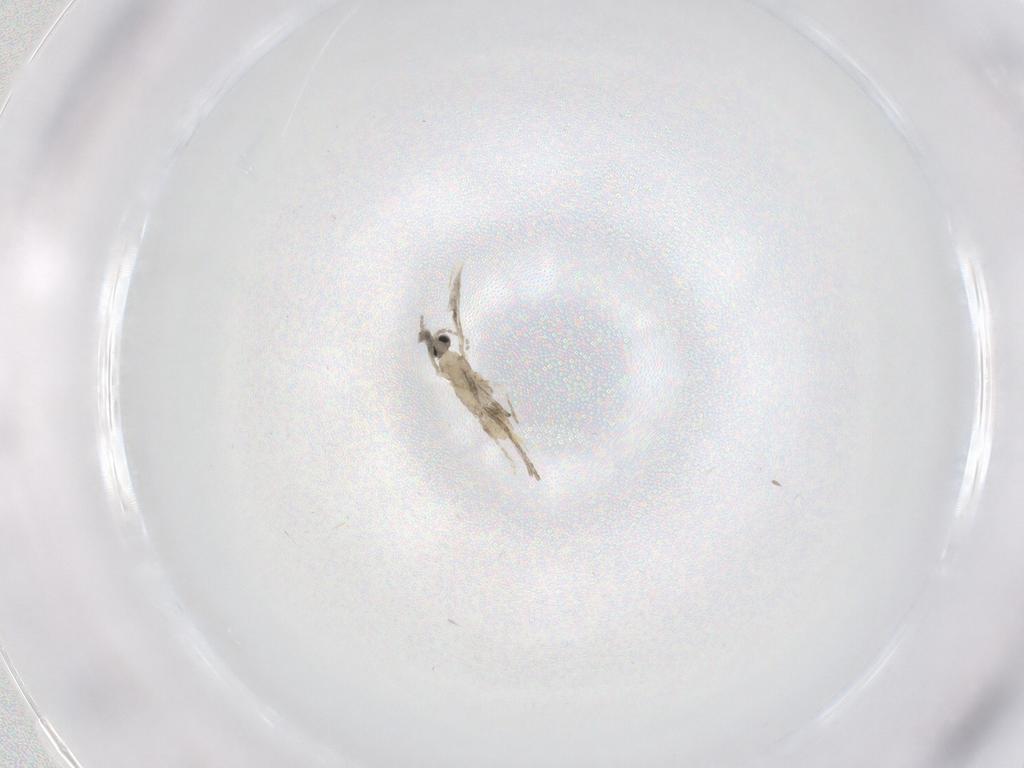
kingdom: Animalia
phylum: Arthropoda
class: Insecta
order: Diptera
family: Cecidomyiidae
